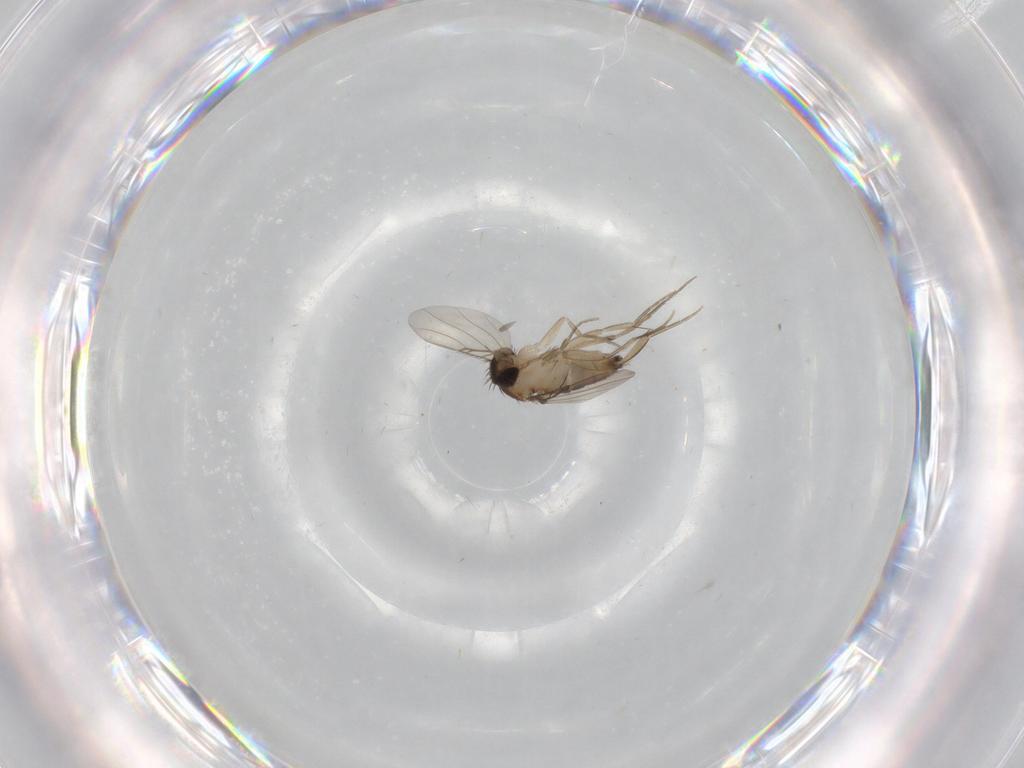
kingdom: Animalia
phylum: Arthropoda
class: Insecta
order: Diptera
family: Phoridae
